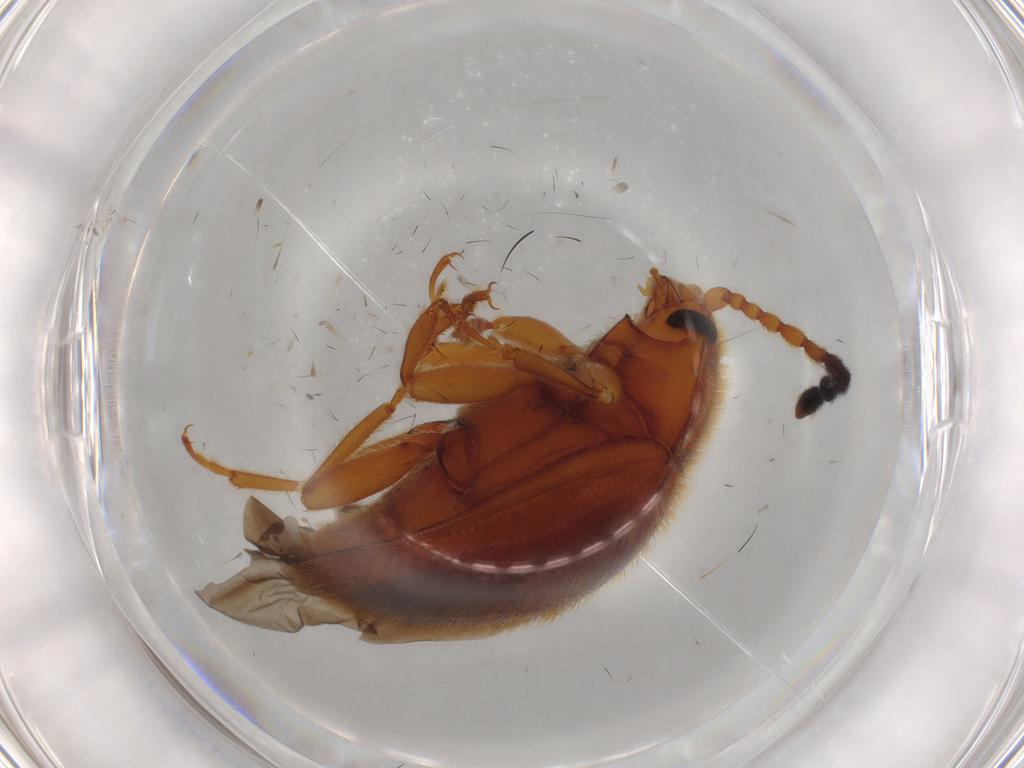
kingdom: Animalia
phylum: Arthropoda
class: Insecta
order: Coleoptera
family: Endomychidae
